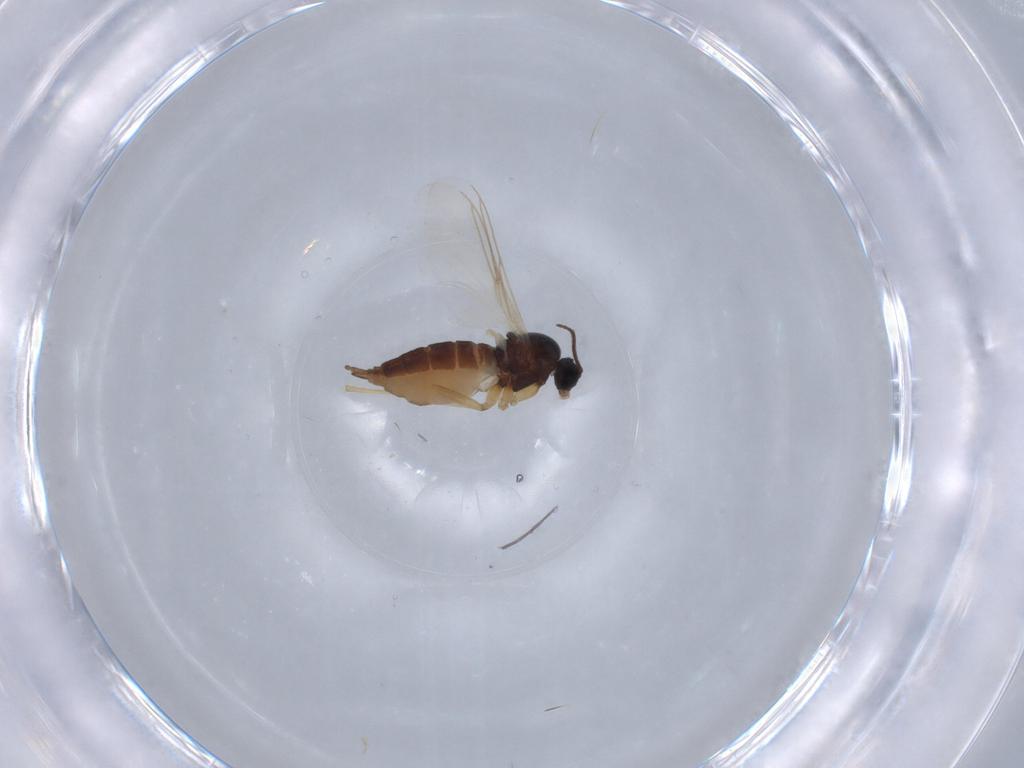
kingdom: Animalia
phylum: Arthropoda
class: Insecta
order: Diptera
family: Sciaridae
